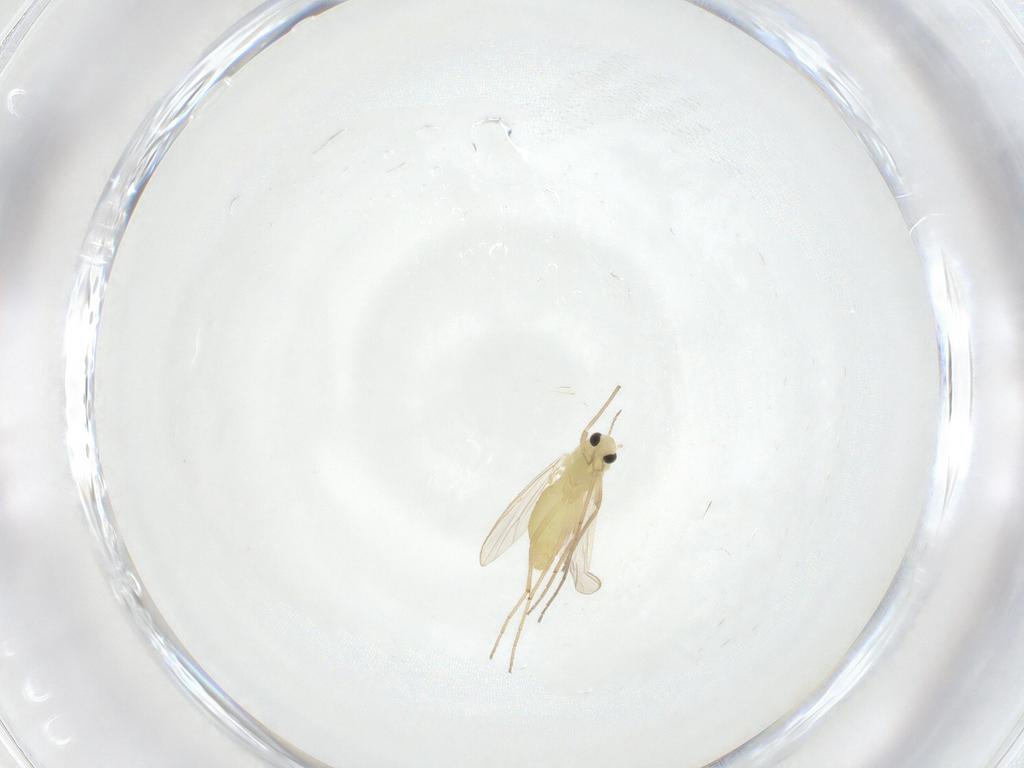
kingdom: Animalia
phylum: Arthropoda
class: Insecta
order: Diptera
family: Chironomidae
